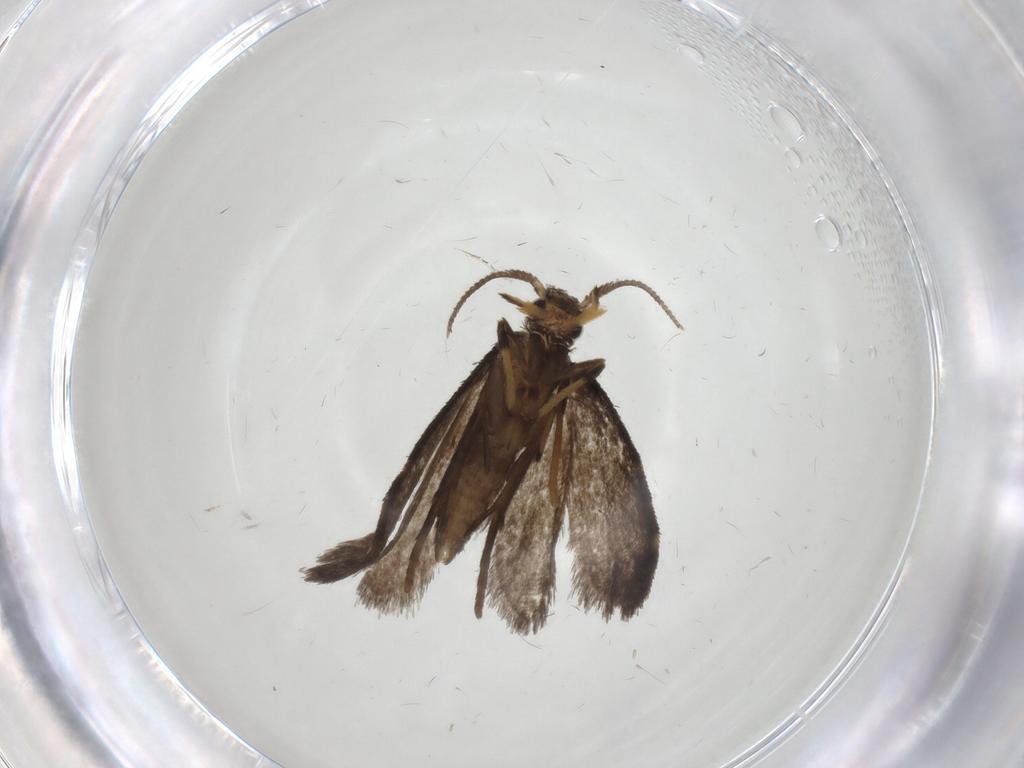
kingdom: Animalia
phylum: Arthropoda
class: Insecta
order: Lepidoptera
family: Psychidae
